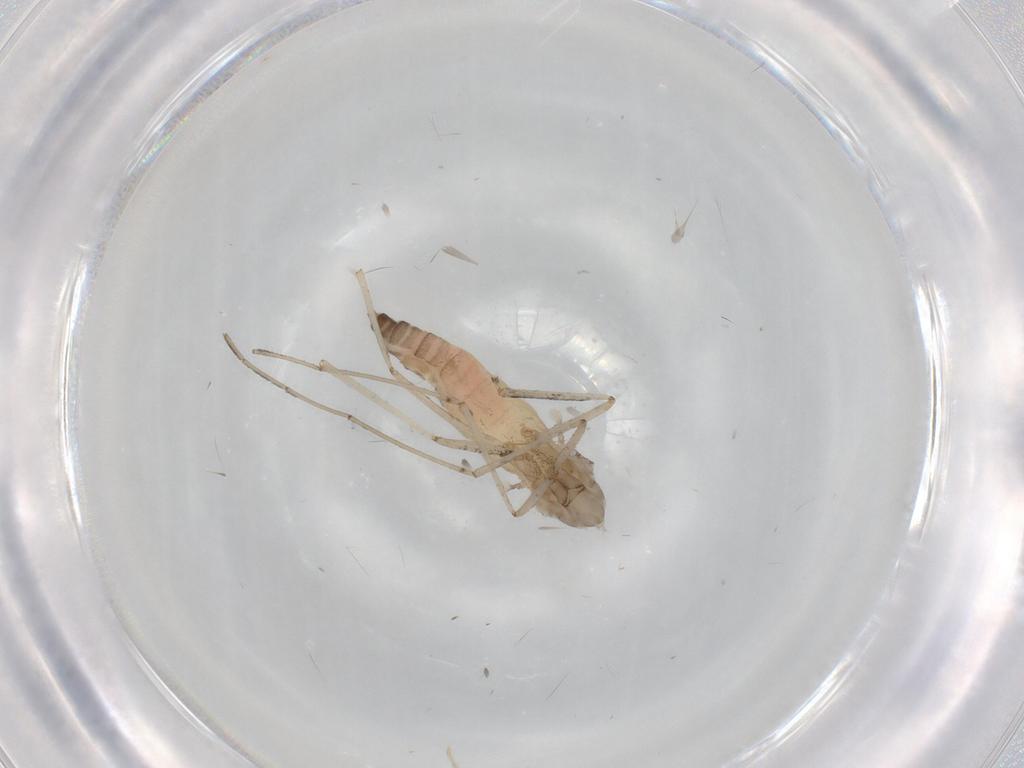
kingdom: Animalia
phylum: Arthropoda
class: Insecta
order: Diptera
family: Cecidomyiidae
